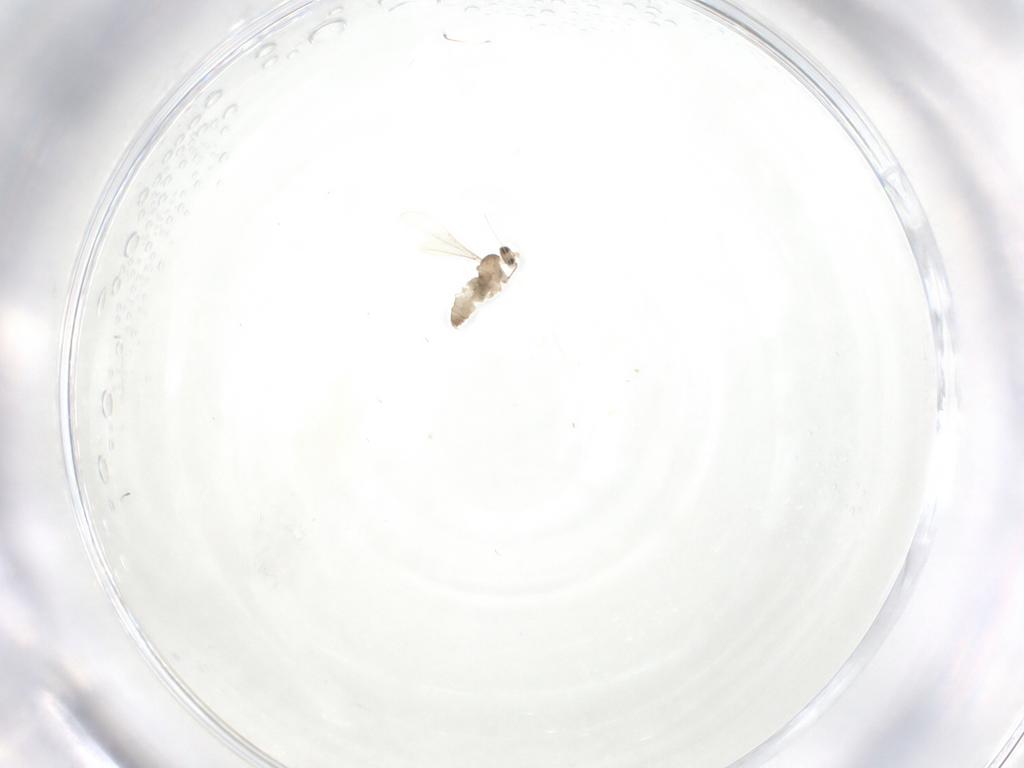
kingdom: Animalia
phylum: Arthropoda
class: Insecta
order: Diptera
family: Cecidomyiidae
